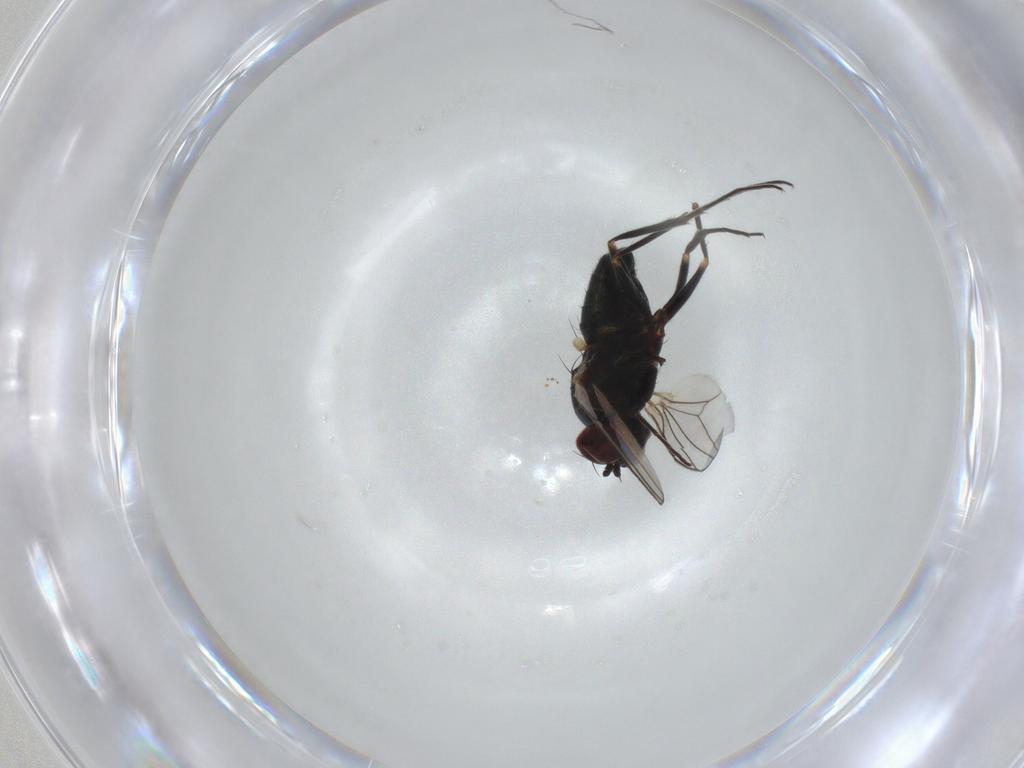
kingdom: Animalia
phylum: Arthropoda
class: Insecta
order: Diptera
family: Dolichopodidae
